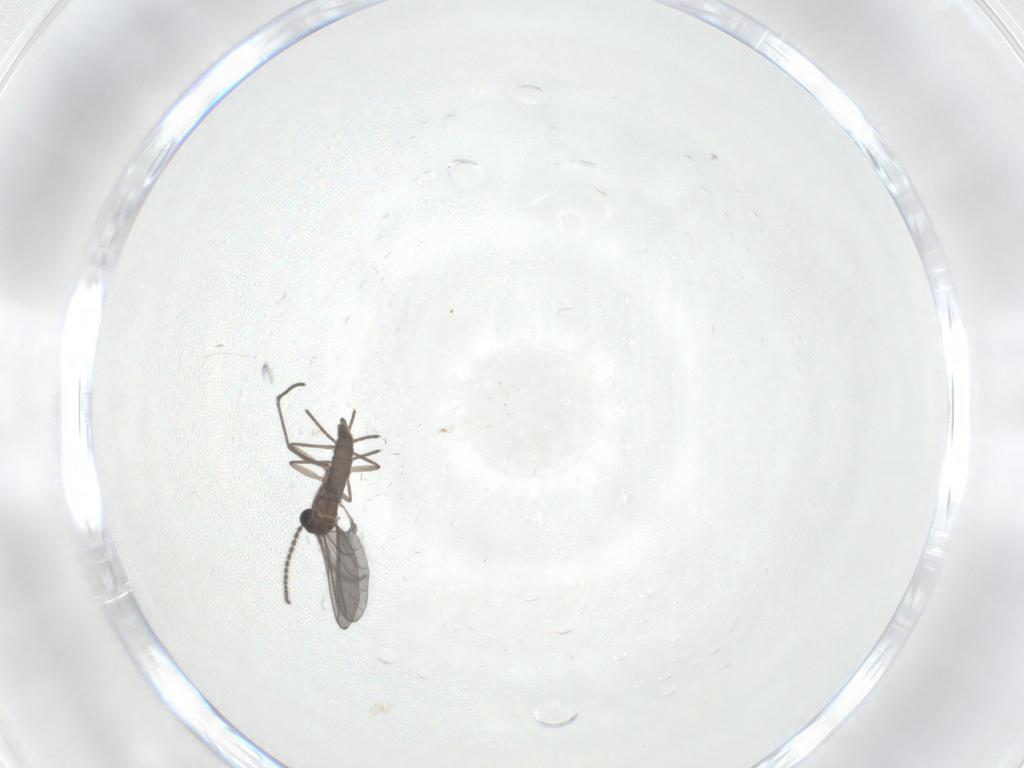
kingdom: Animalia
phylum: Arthropoda
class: Insecta
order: Diptera
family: Sciaridae
